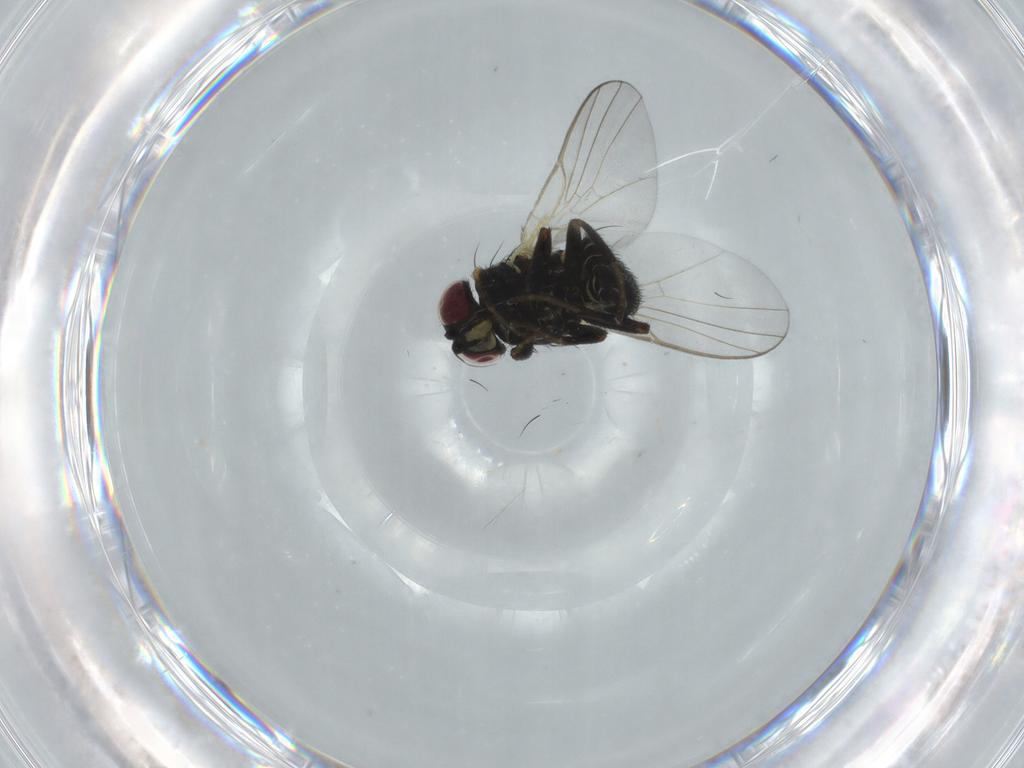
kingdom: Animalia
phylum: Arthropoda
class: Insecta
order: Diptera
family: Agromyzidae
